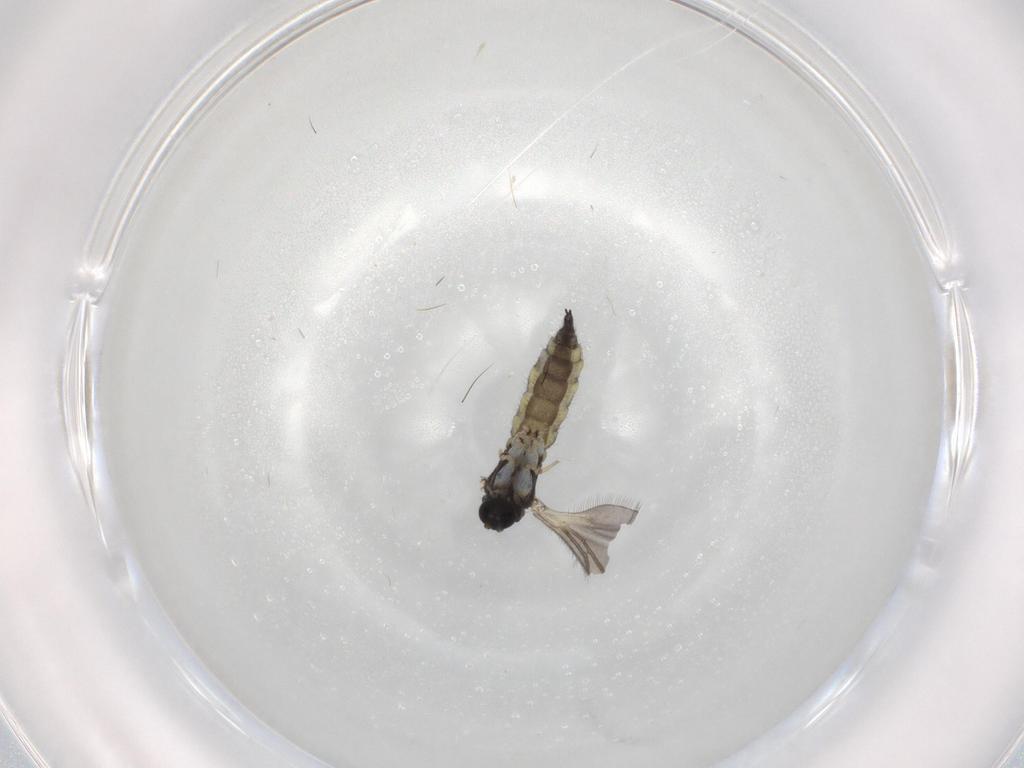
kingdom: Animalia
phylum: Arthropoda
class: Insecta
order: Diptera
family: Sciaridae
